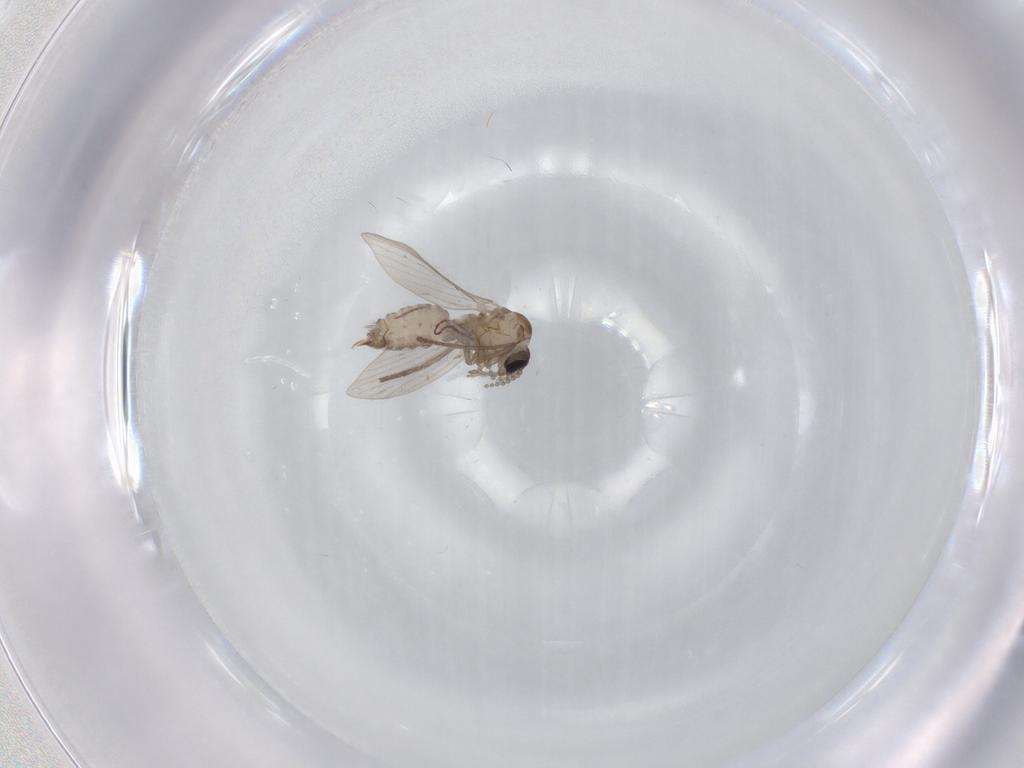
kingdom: Animalia
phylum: Arthropoda
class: Insecta
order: Diptera
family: Psychodidae
